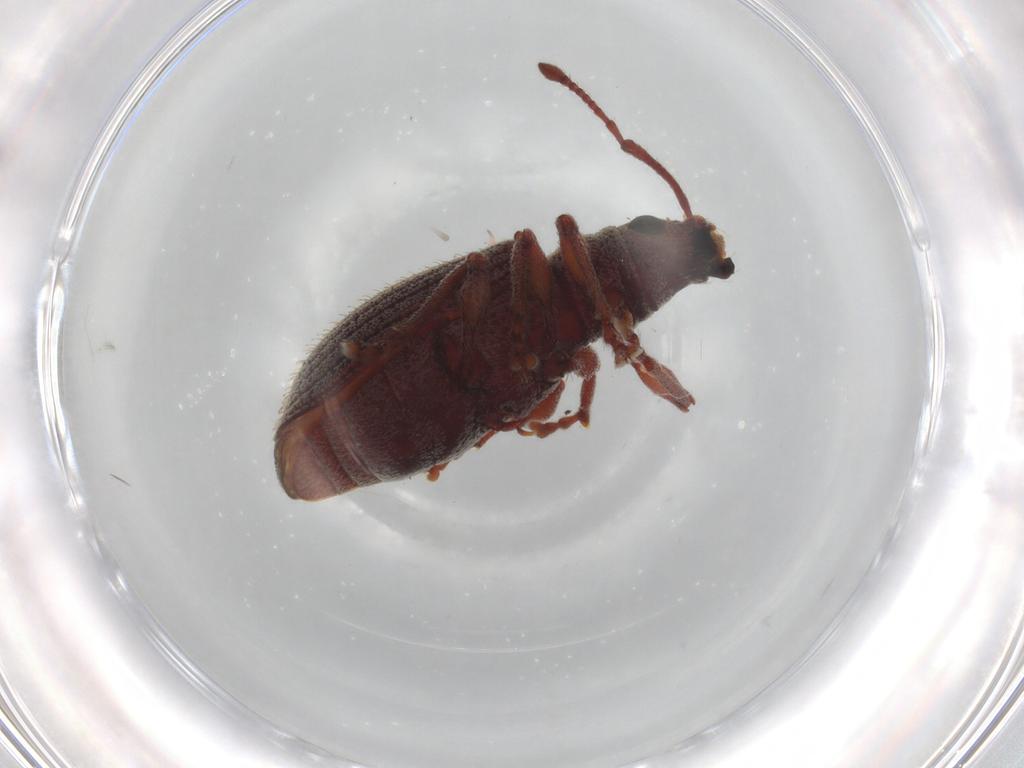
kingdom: Animalia
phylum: Arthropoda
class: Insecta
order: Coleoptera
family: Curculionidae
